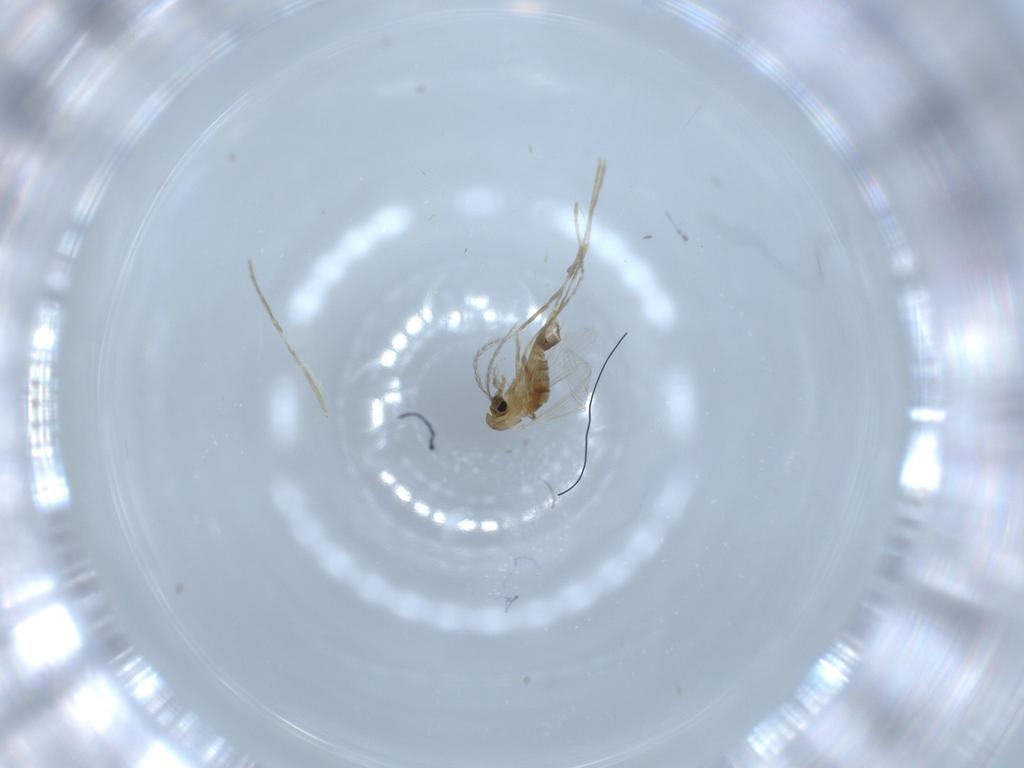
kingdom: Animalia
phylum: Arthropoda
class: Insecta
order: Diptera
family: Psychodidae
